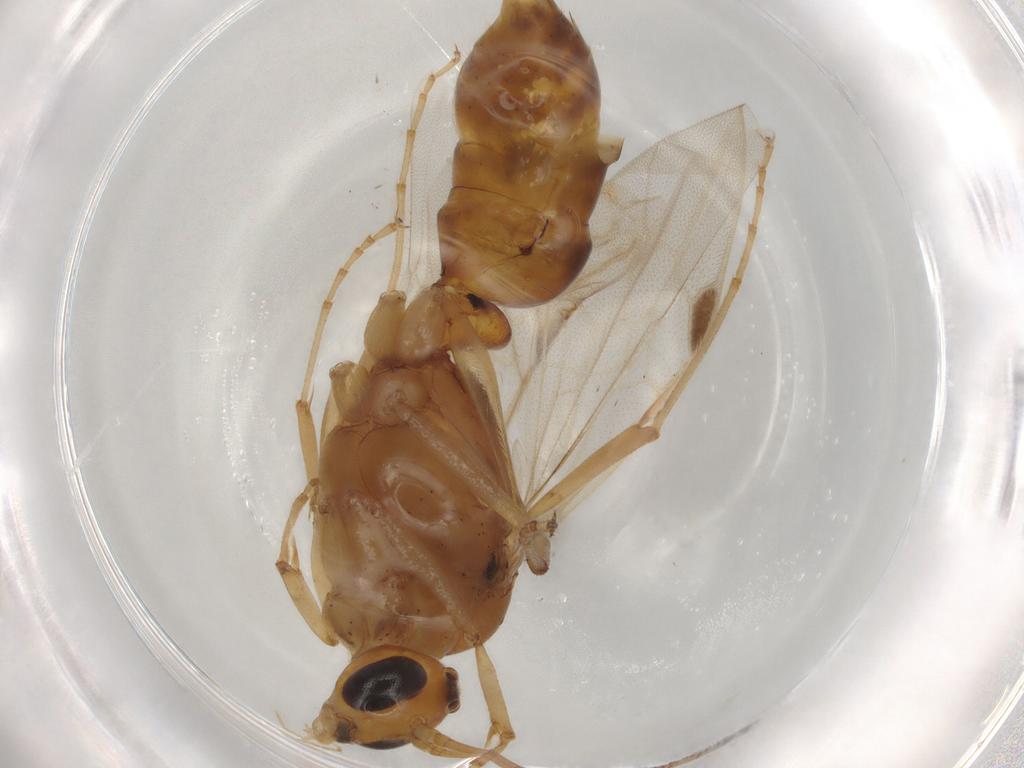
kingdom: Animalia
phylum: Arthropoda
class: Insecta
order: Hymenoptera
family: Formicidae
